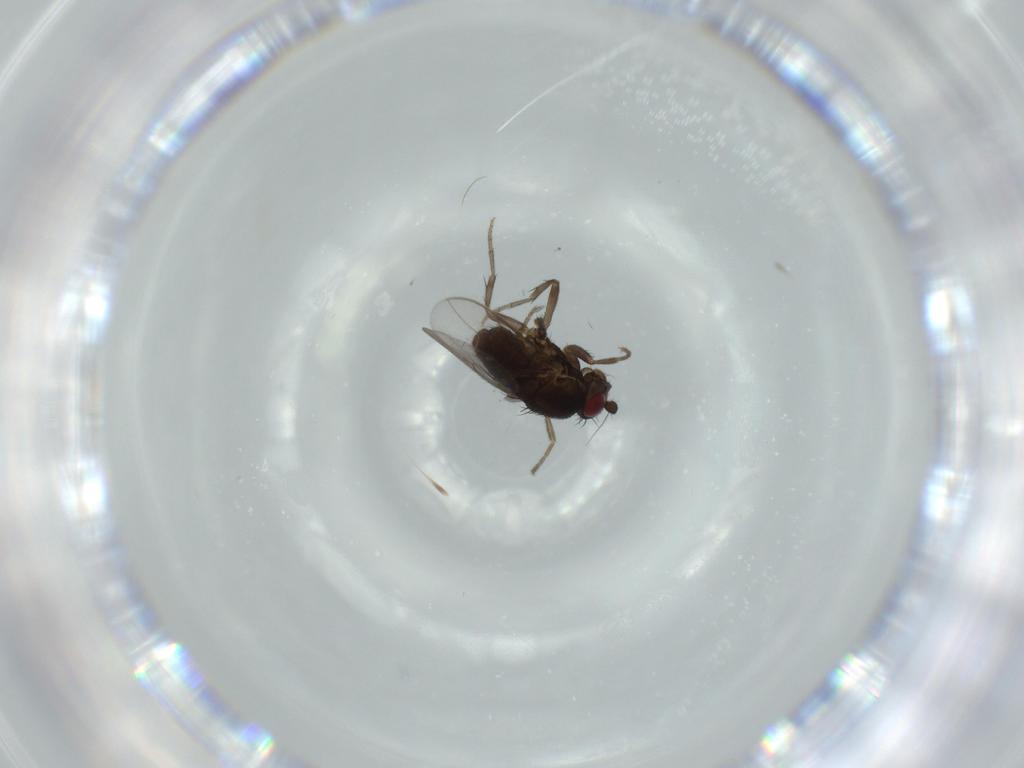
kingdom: Animalia
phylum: Arthropoda
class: Insecta
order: Diptera
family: Sphaeroceridae
